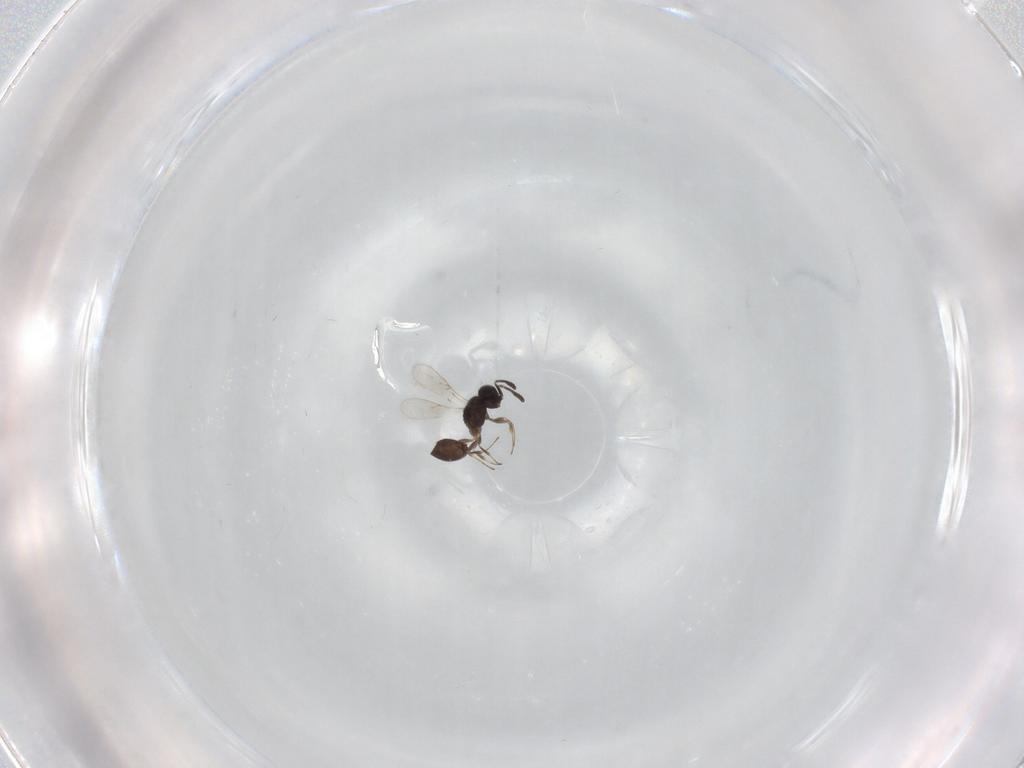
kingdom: Animalia
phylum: Arthropoda
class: Insecta
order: Hymenoptera
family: Scelionidae
